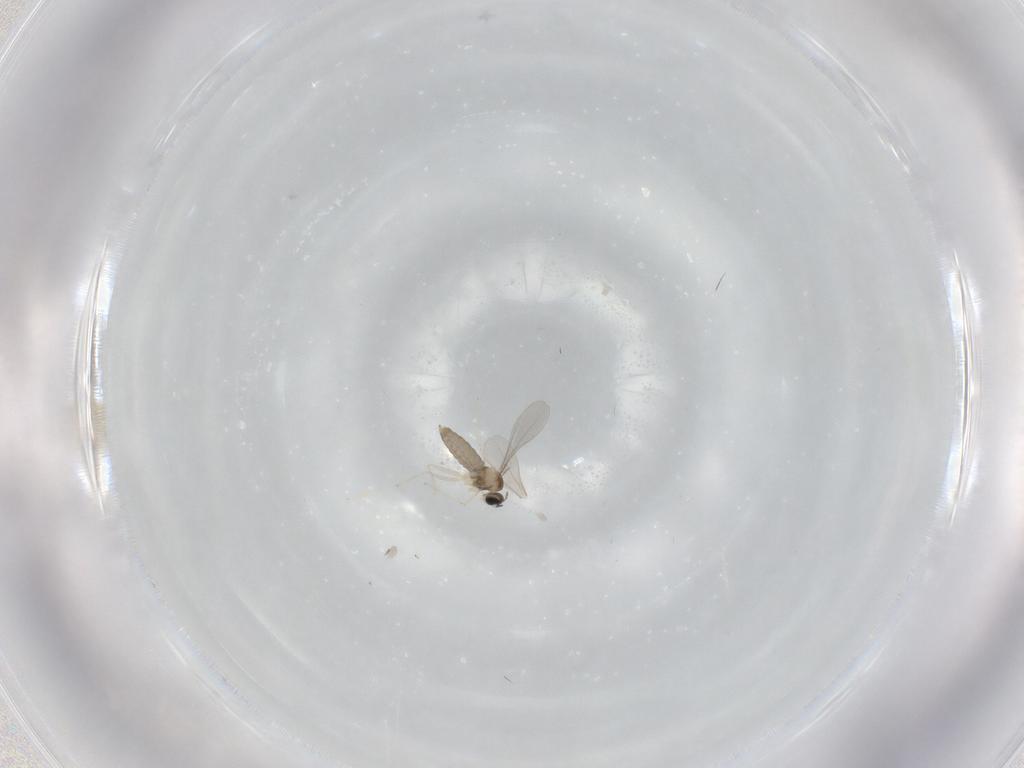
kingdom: Animalia
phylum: Arthropoda
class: Insecta
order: Diptera
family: Cecidomyiidae
